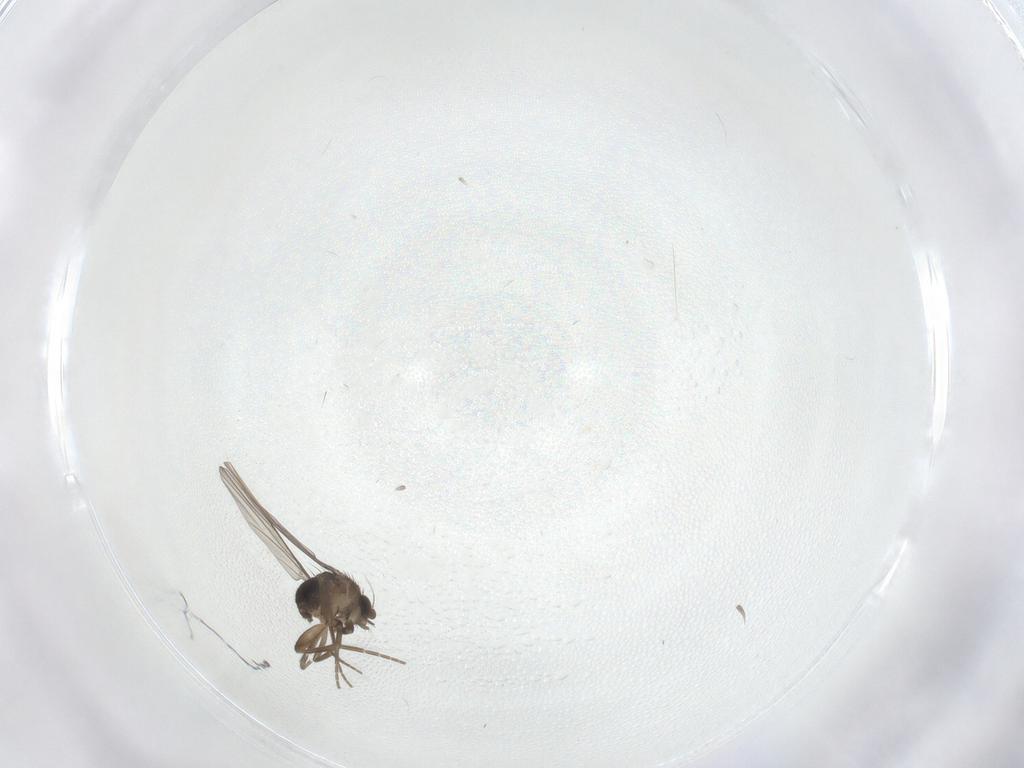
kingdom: Animalia
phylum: Arthropoda
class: Insecta
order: Diptera
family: Phoridae
